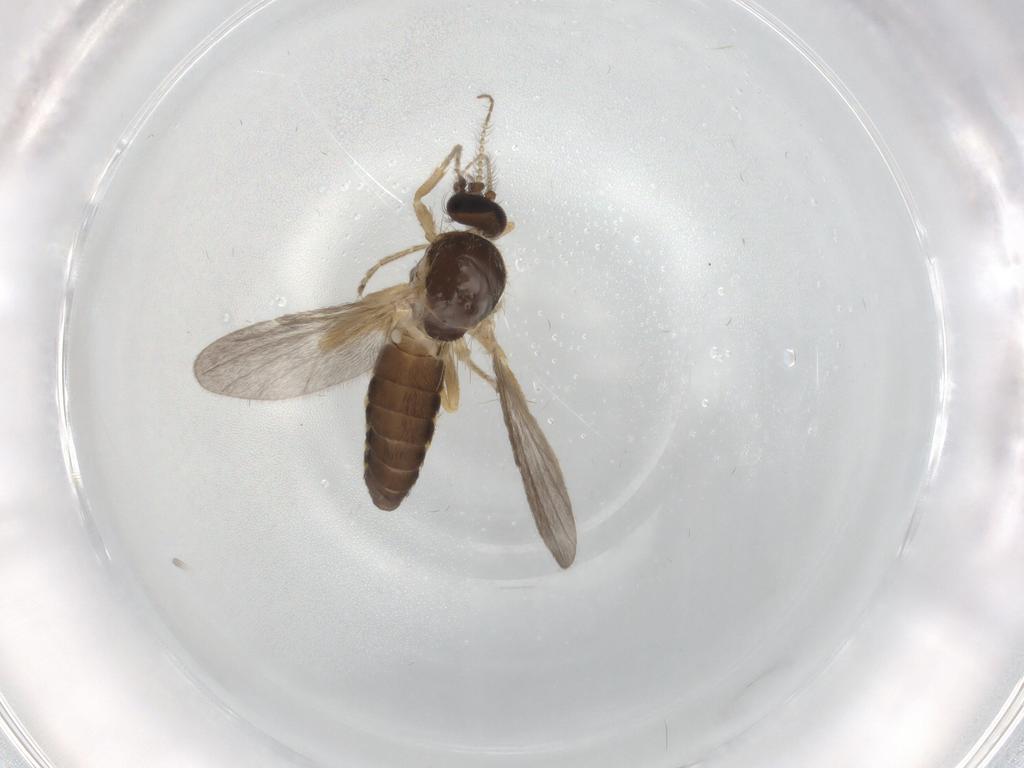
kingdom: Animalia
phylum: Arthropoda
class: Insecta
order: Diptera
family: Ceratopogonidae
